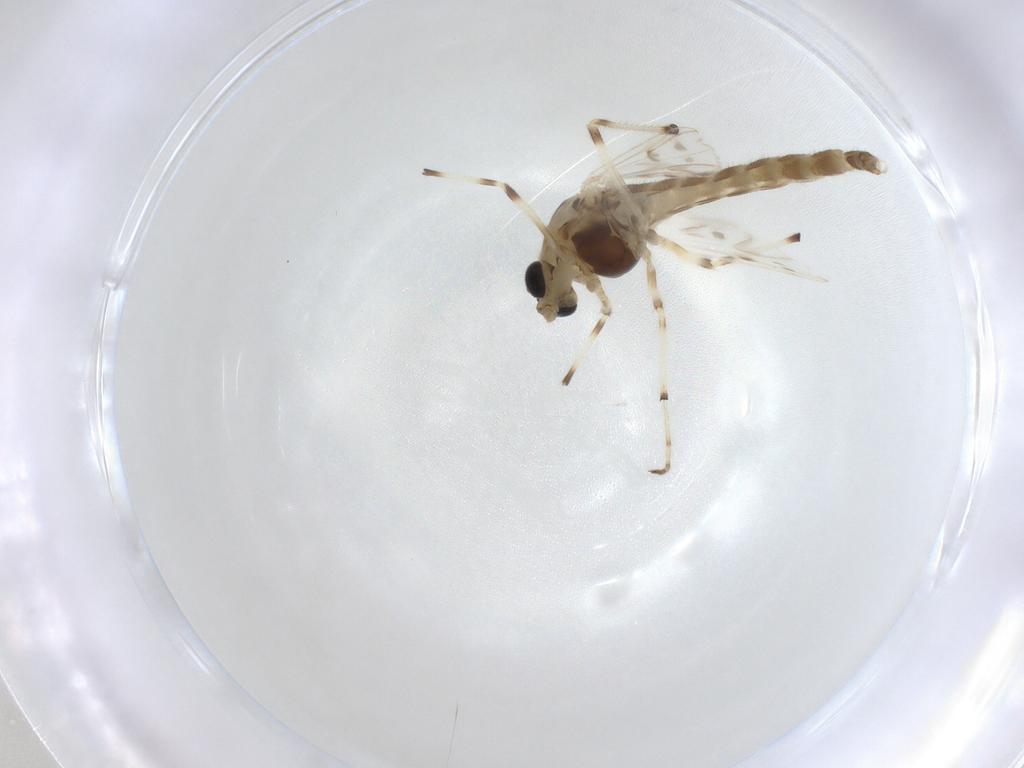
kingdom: Animalia
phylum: Arthropoda
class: Insecta
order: Diptera
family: Chironomidae
